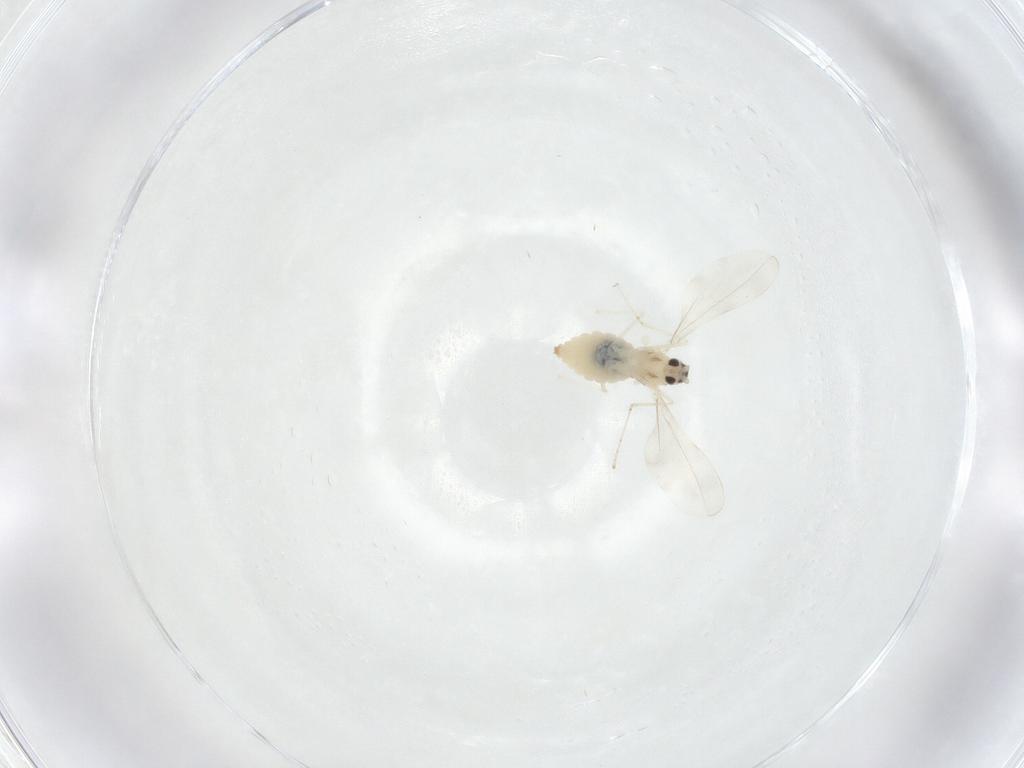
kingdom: Animalia
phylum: Arthropoda
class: Insecta
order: Diptera
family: Cecidomyiidae
